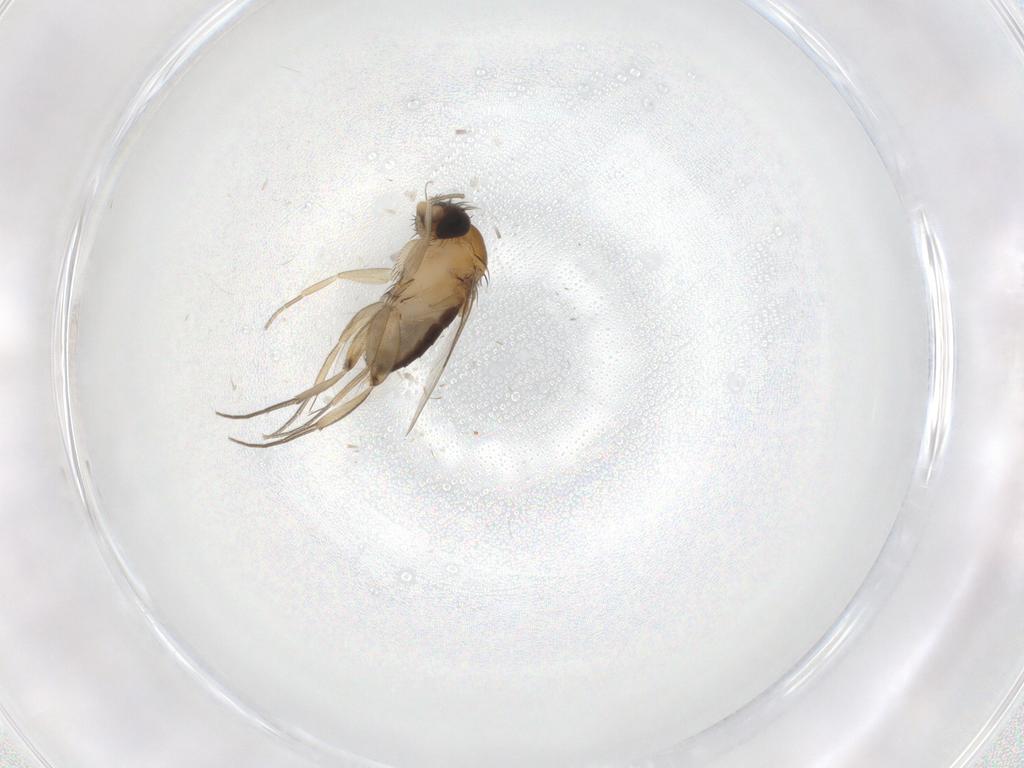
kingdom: Animalia
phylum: Arthropoda
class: Insecta
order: Diptera
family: Phoridae
